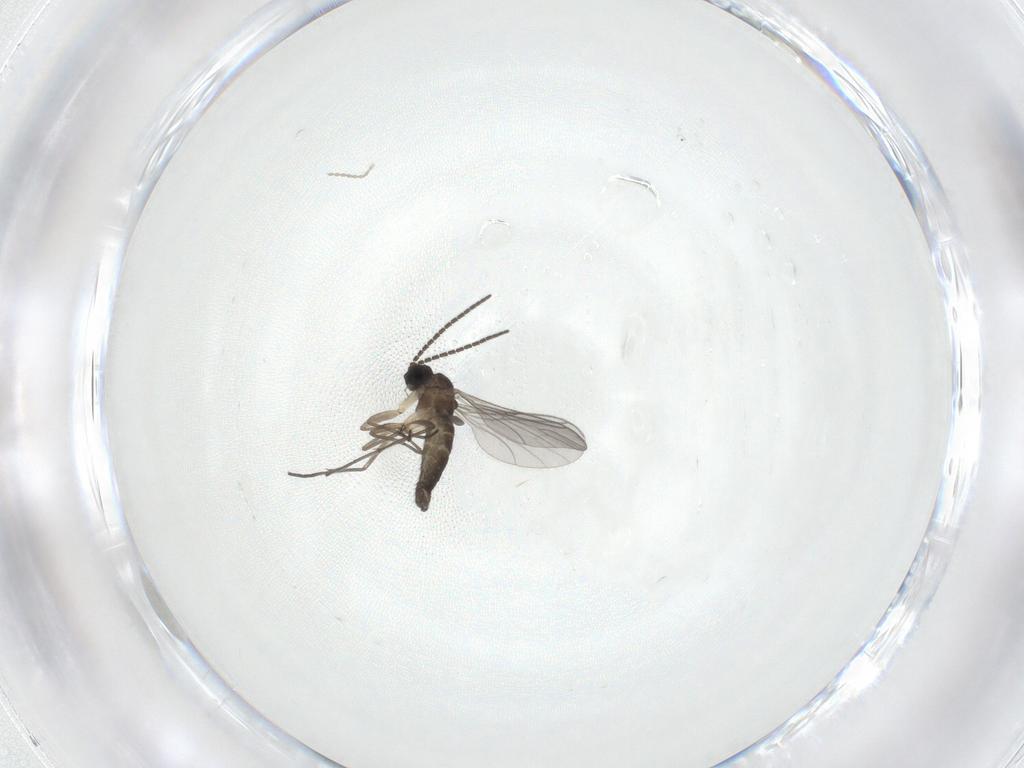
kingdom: Animalia
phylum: Arthropoda
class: Insecta
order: Diptera
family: Sciaridae
